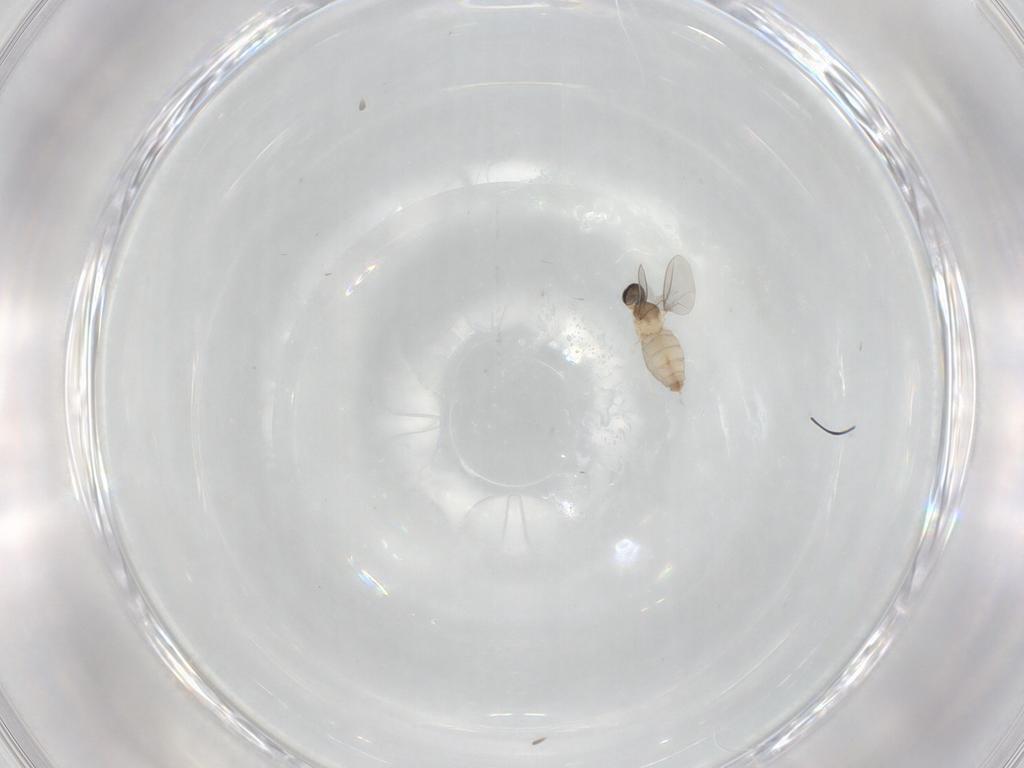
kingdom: Animalia
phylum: Arthropoda
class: Insecta
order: Diptera
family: Cecidomyiidae
